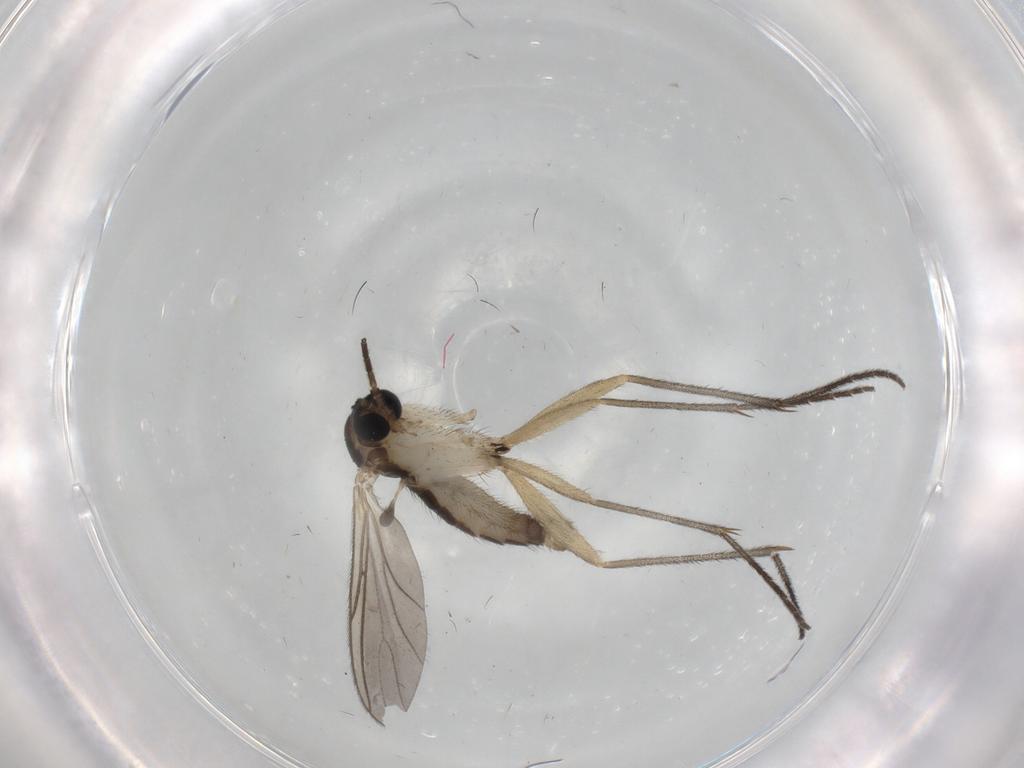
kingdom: Animalia
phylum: Arthropoda
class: Insecta
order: Diptera
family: Sciaridae
